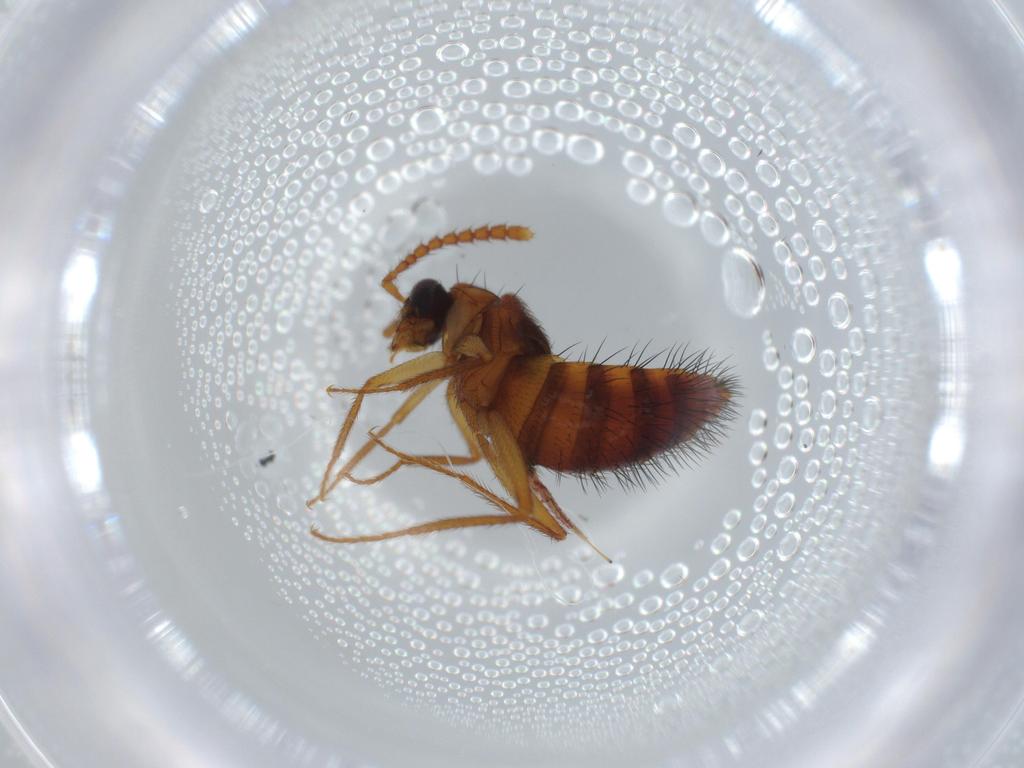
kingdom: Animalia
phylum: Arthropoda
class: Insecta
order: Coleoptera
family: Staphylinidae
